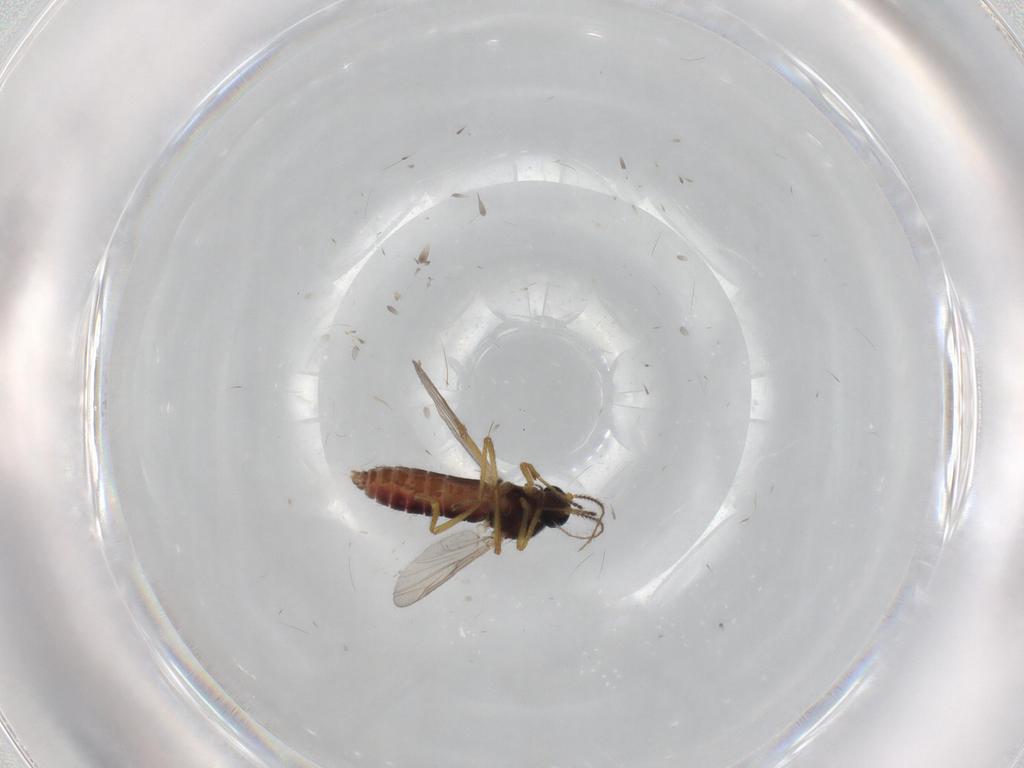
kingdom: Animalia
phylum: Arthropoda
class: Insecta
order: Diptera
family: Ceratopogonidae
